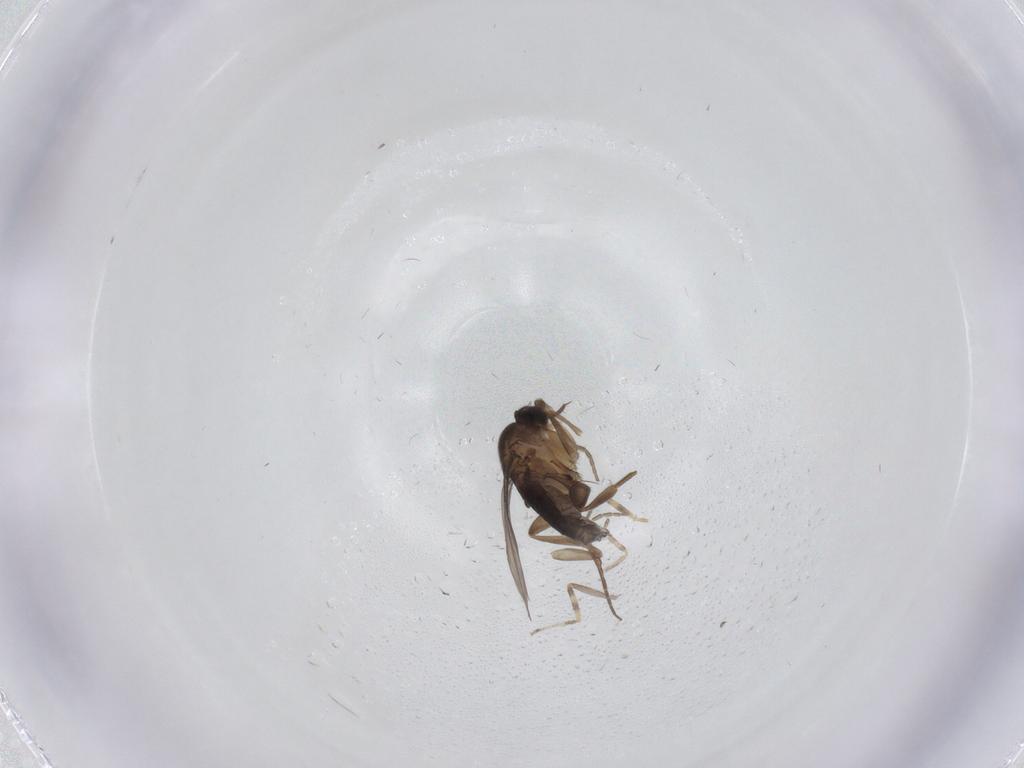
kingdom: Animalia
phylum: Arthropoda
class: Insecta
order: Diptera
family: Phoridae
